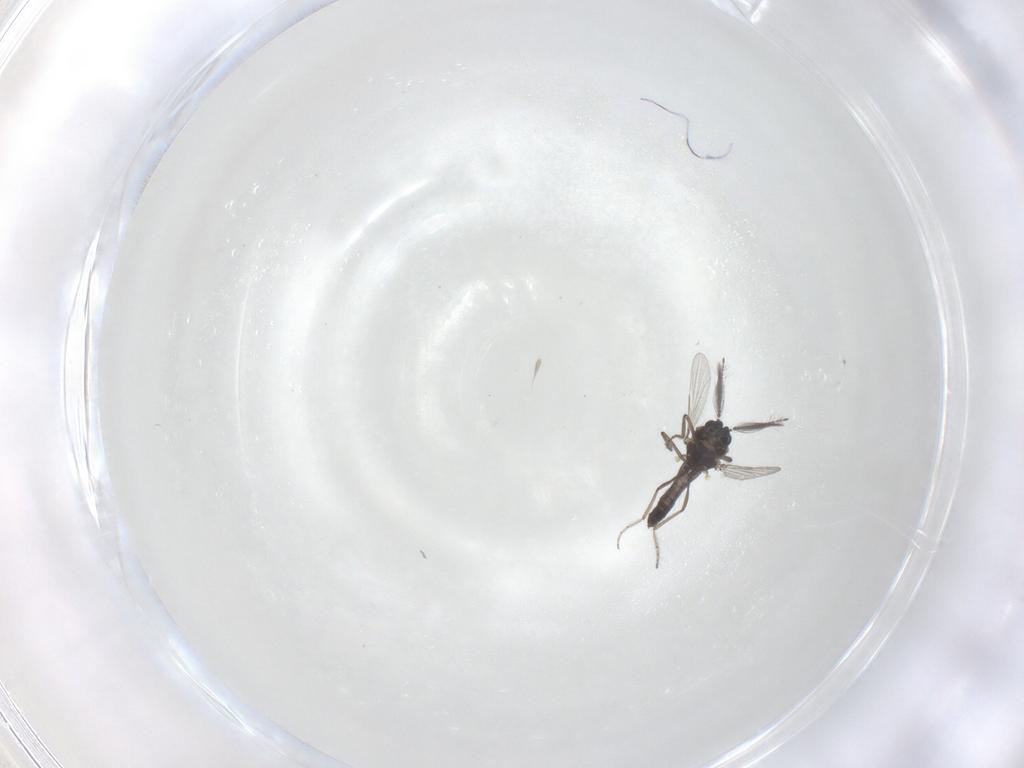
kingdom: Animalia
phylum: Arthropoda
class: Insecta
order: Diptera
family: Ceratopogonidae
